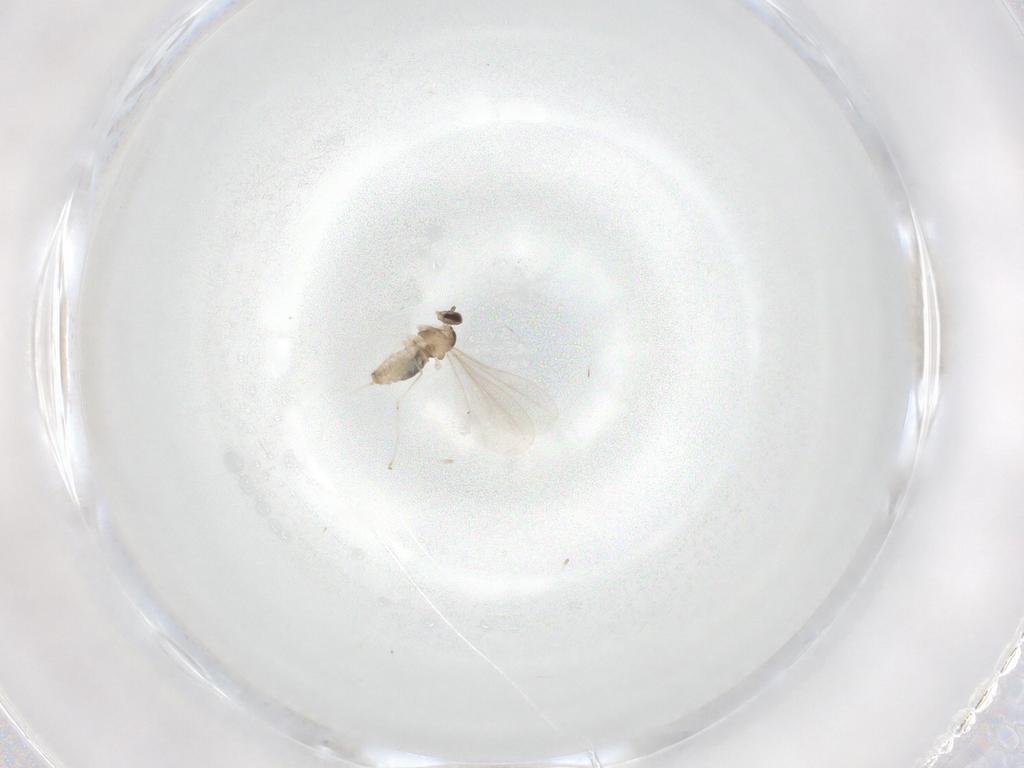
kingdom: Animalia
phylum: Arthropoda
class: Insecta
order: Diptera
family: Cecidomyiidae
